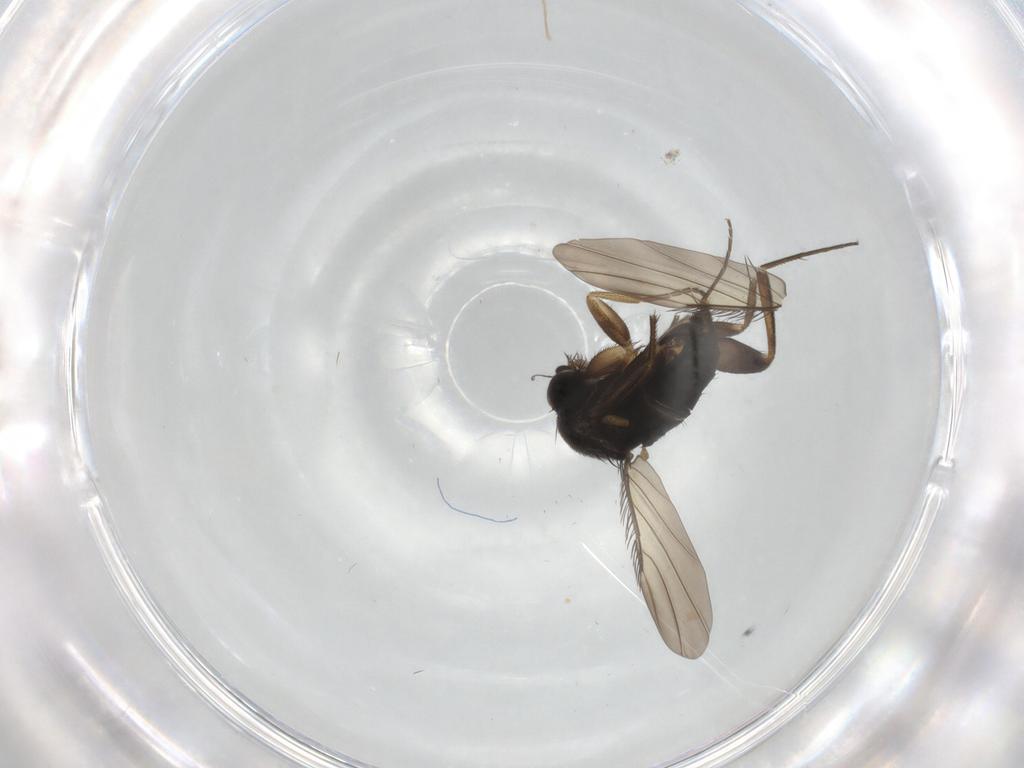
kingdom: Animalia
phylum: Arthropoda
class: Insecta
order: Diptera
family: Phoridae
